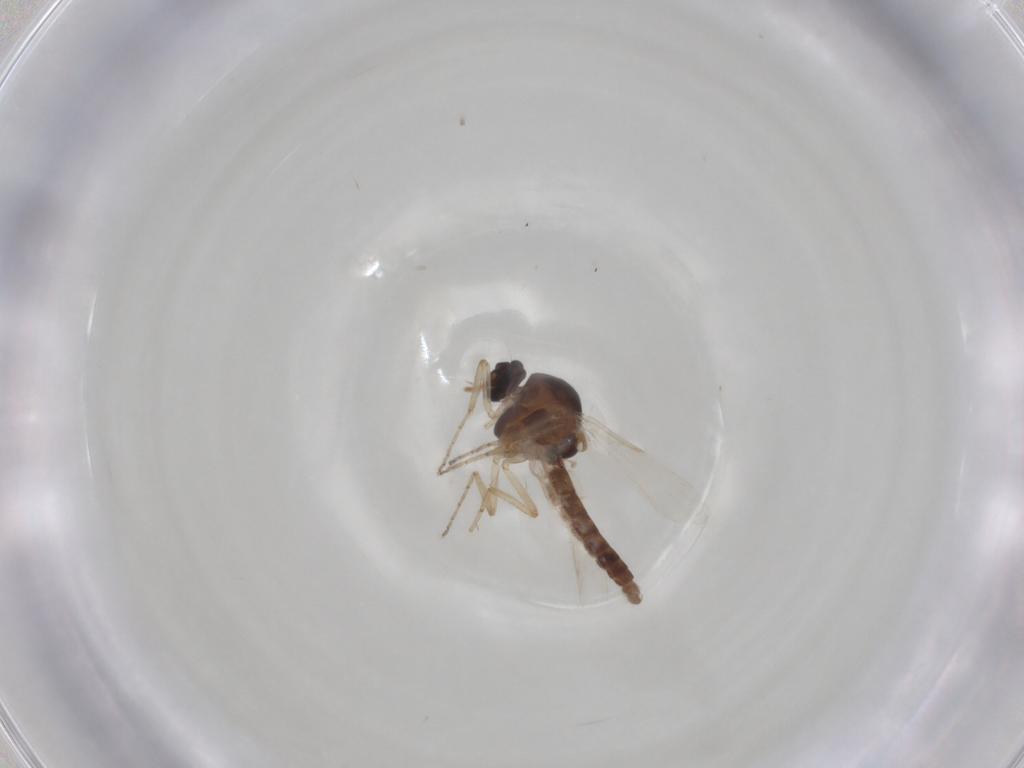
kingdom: Animalia
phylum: Arthropoda
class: Insecta
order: Diptera
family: Ceratopogonidae
